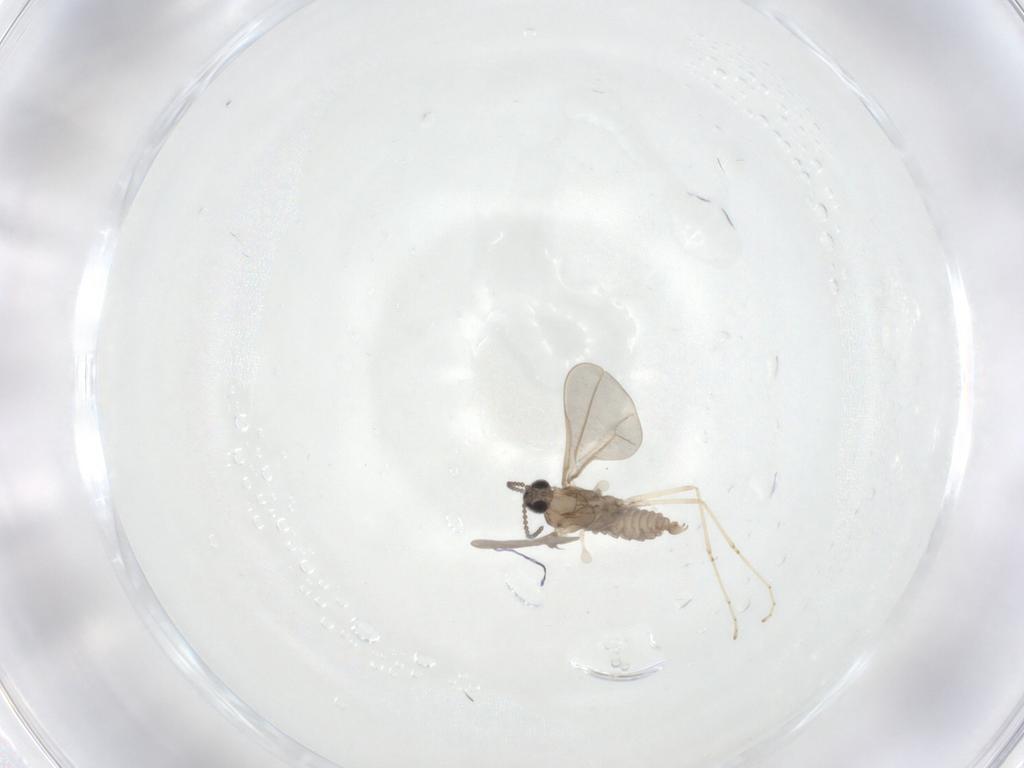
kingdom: Animalia
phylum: Arthropoda
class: Insecta
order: Diptera
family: Cecidomyiidae
